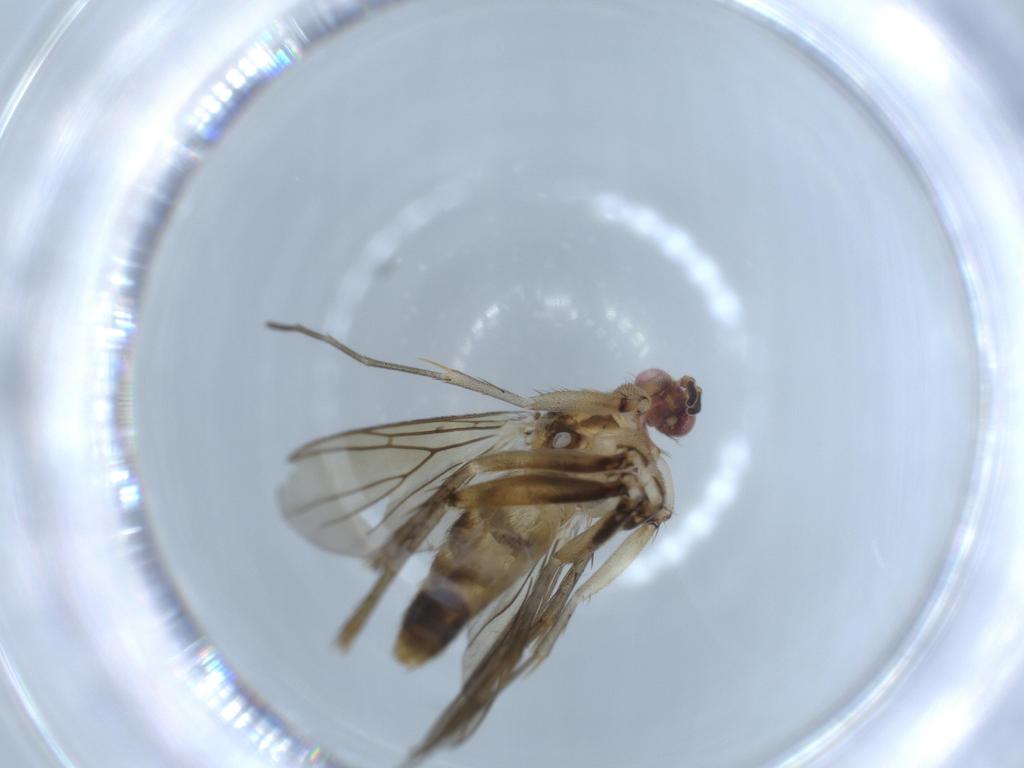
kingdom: Animalia
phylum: Arthropoda
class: Insecta
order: Diptera
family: Mycetophilidae
